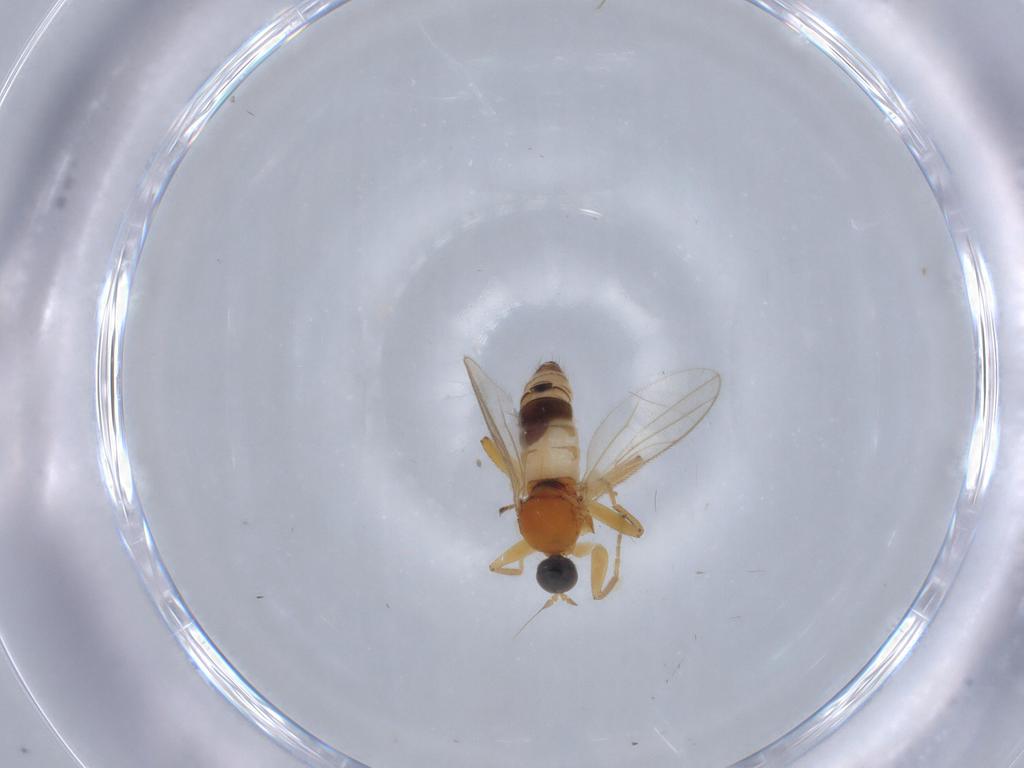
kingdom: Animalia
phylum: Arthropoda
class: Insecta
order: Diptera
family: Hybotidae
